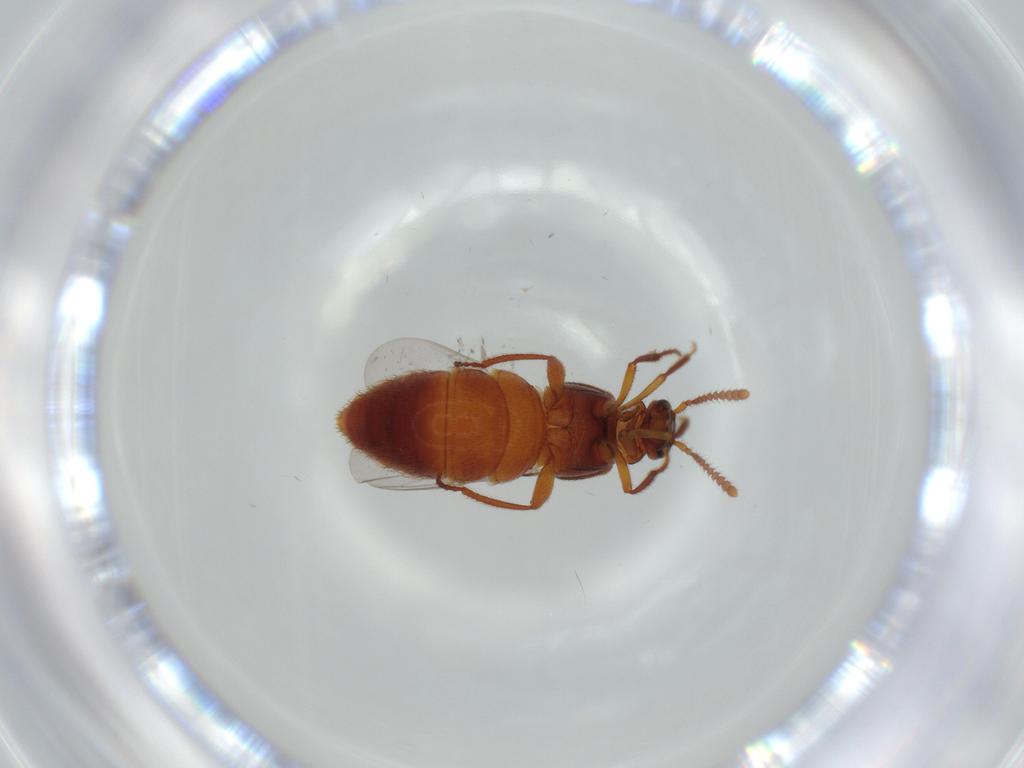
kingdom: Animalia
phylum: Arthropoda
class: Insecta
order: Coleoptera
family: Staphylinidae
